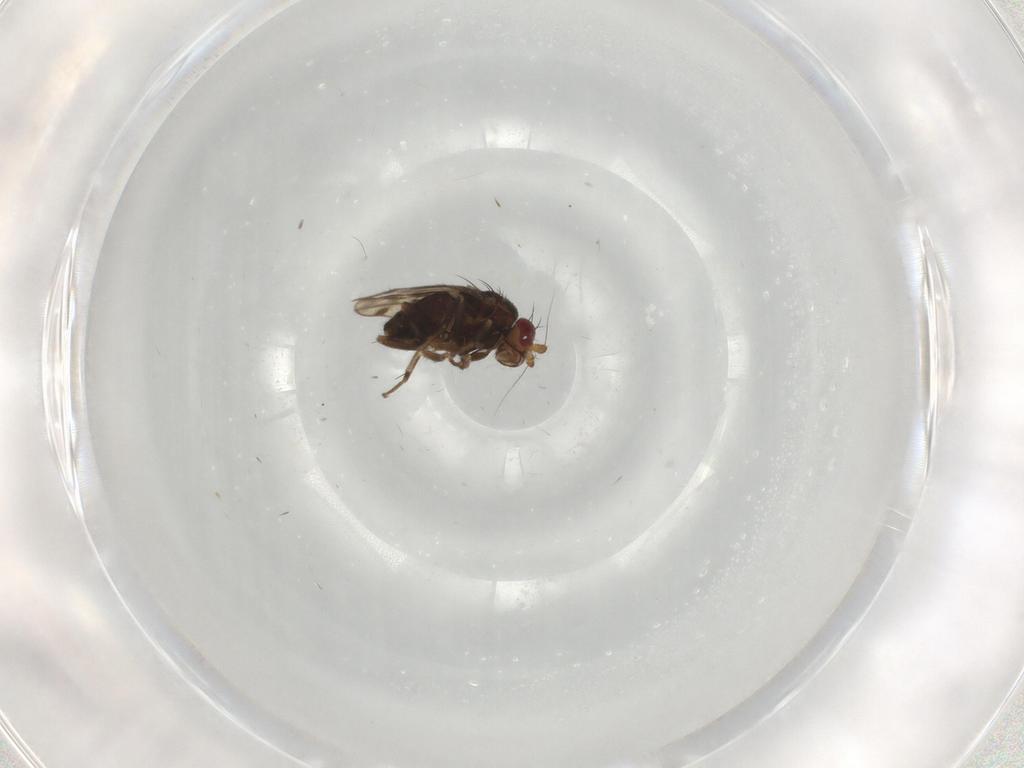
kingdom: Animalia
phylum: Arthropoda
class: Insecta
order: Diptera
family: Sphaeroceridae
